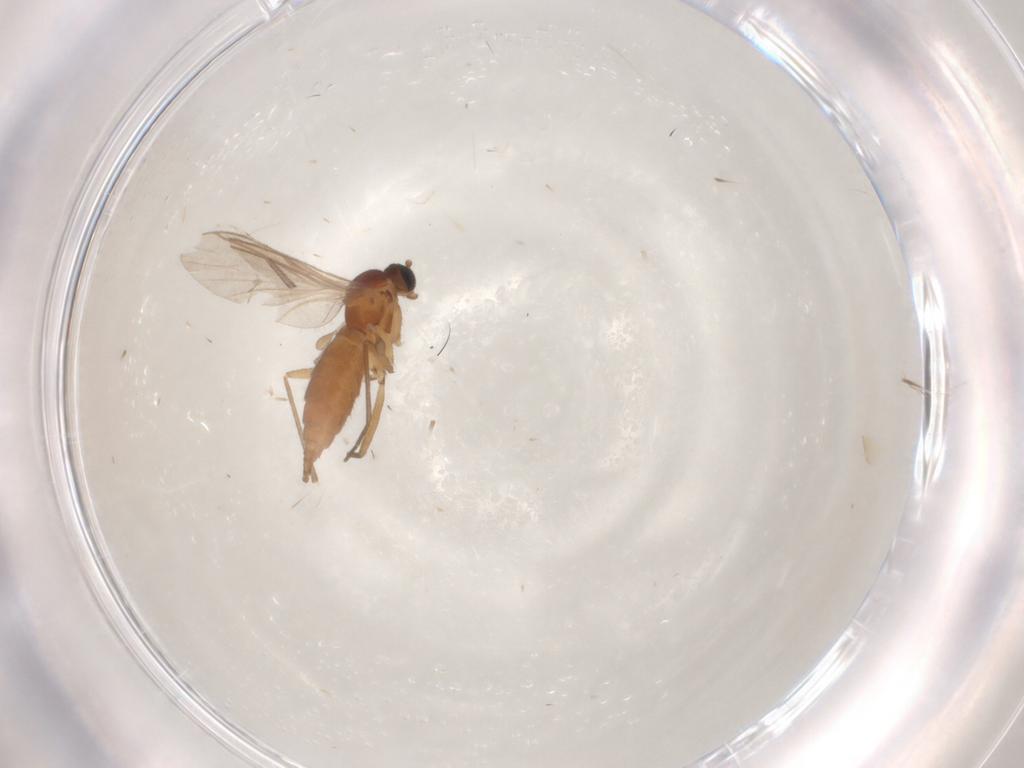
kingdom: Animalia
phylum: Arthropoda
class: Insecta
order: Diptera
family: Sciaridae
